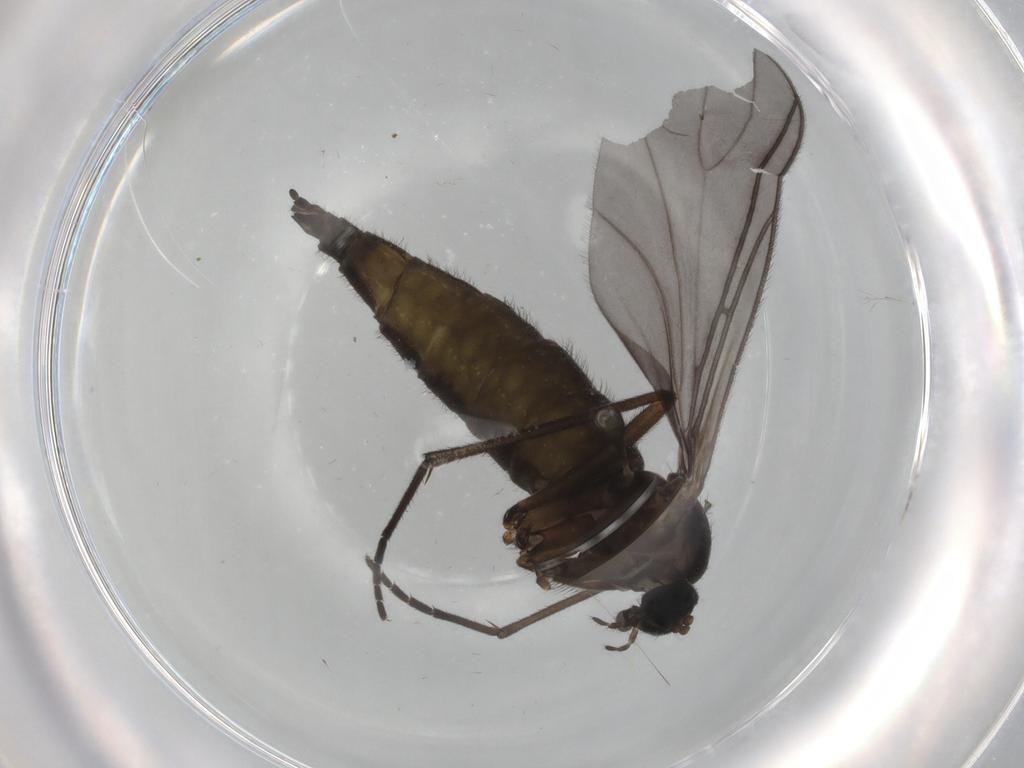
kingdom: Animalia
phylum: Arthropoda
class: Insecta
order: Diptera
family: Sciaridae
